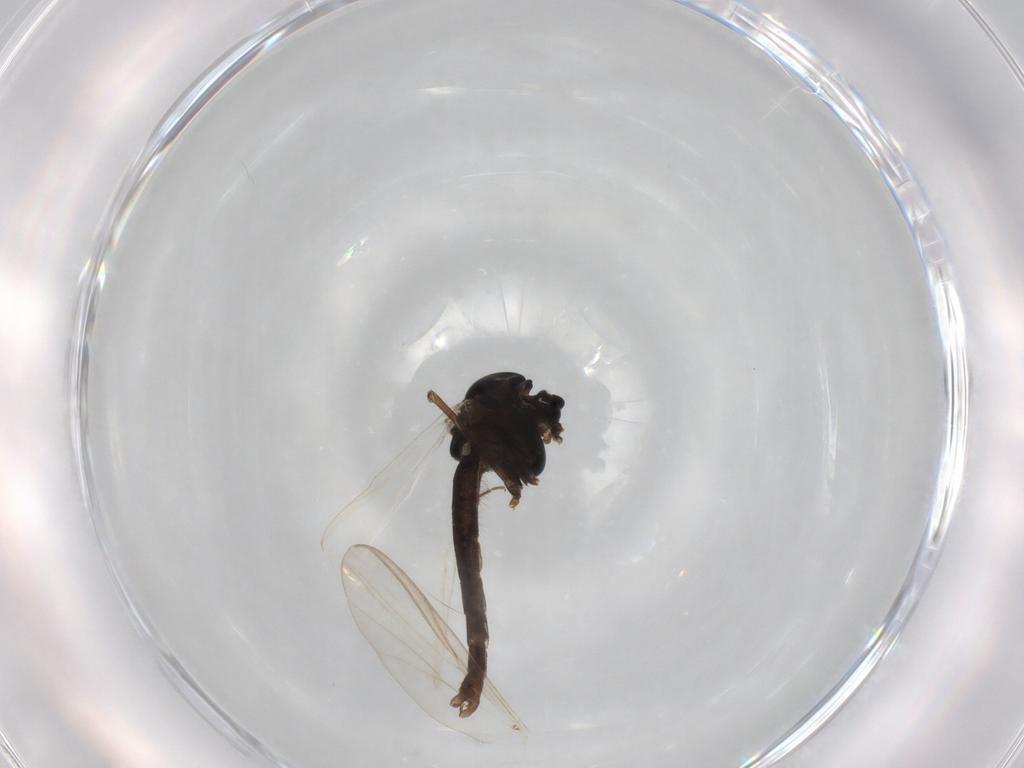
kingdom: Animalia
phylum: Arthropoda
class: Insecta
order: Diptera
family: Chironomidae
